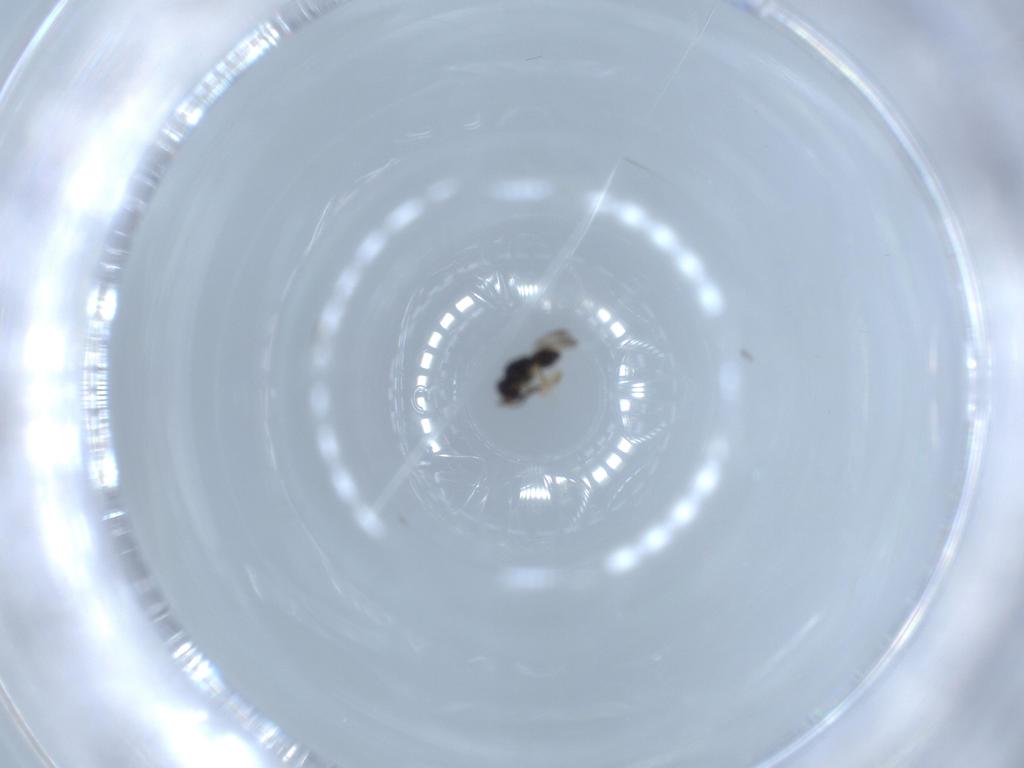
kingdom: Animalia
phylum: Arthropoda
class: Insecta
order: Hymenoptera
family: Ceraphronidae
